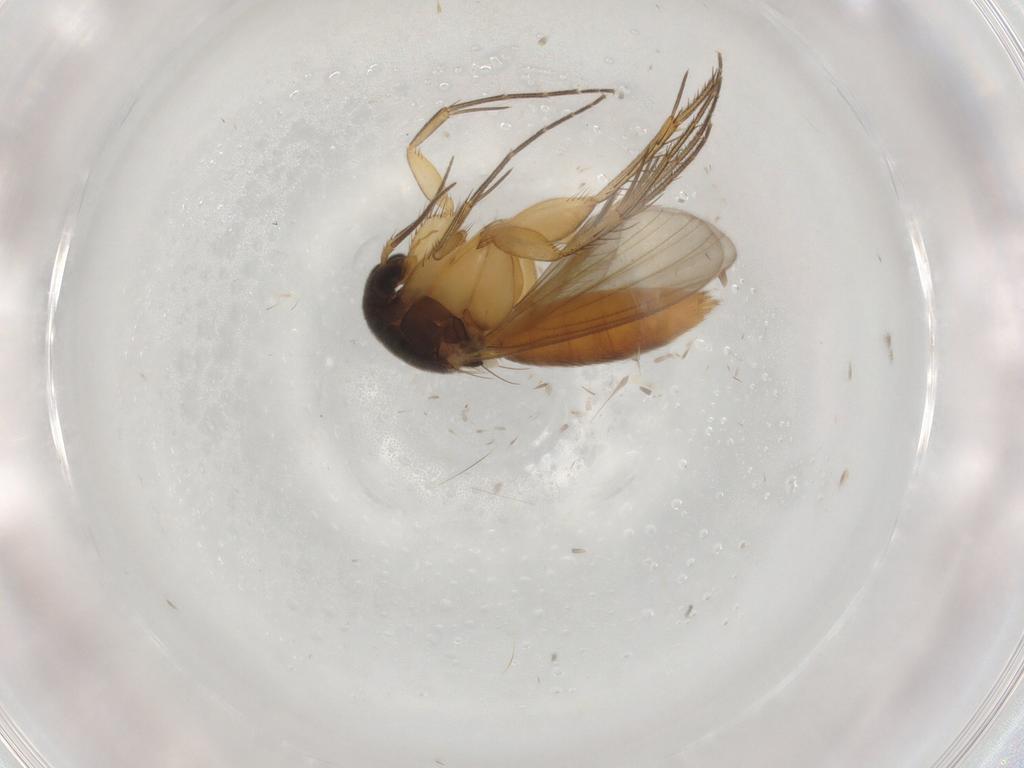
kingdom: Animalia
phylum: Arthropoda
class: Insecta
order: Diptera
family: Mycetophilidae
